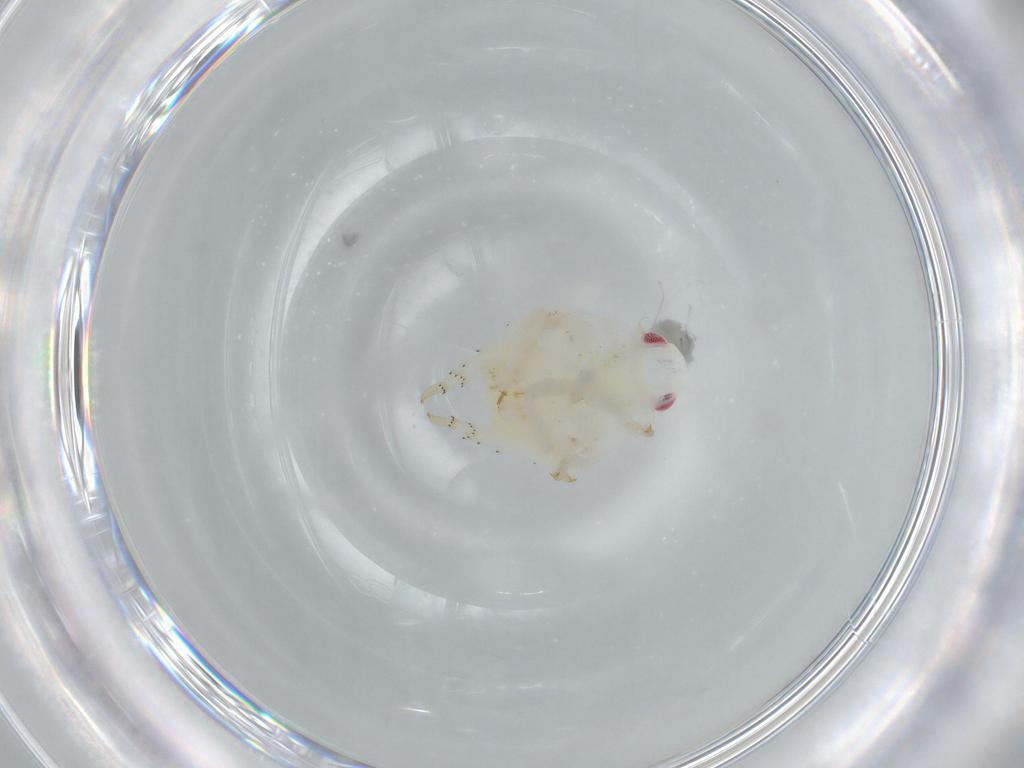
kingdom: Animalia
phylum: Arthropoda
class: Insecta
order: Hemiptera
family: Flatidae
